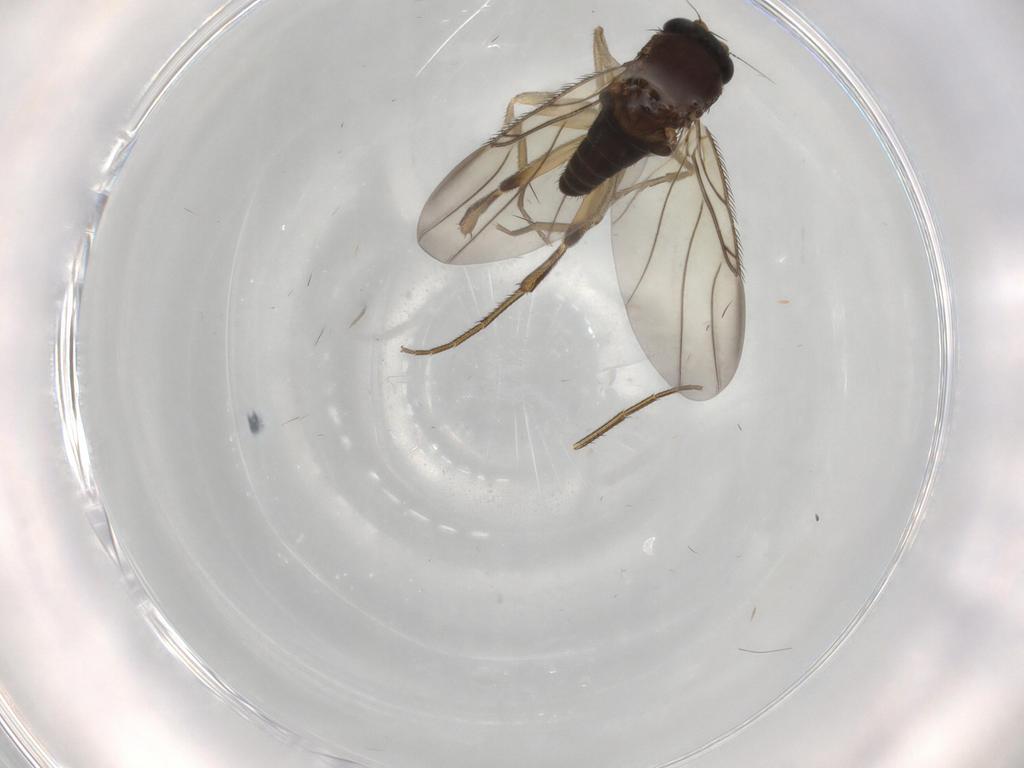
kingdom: Animalia
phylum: Arthropoda
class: Insecta
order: Diptera
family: Phoridae
